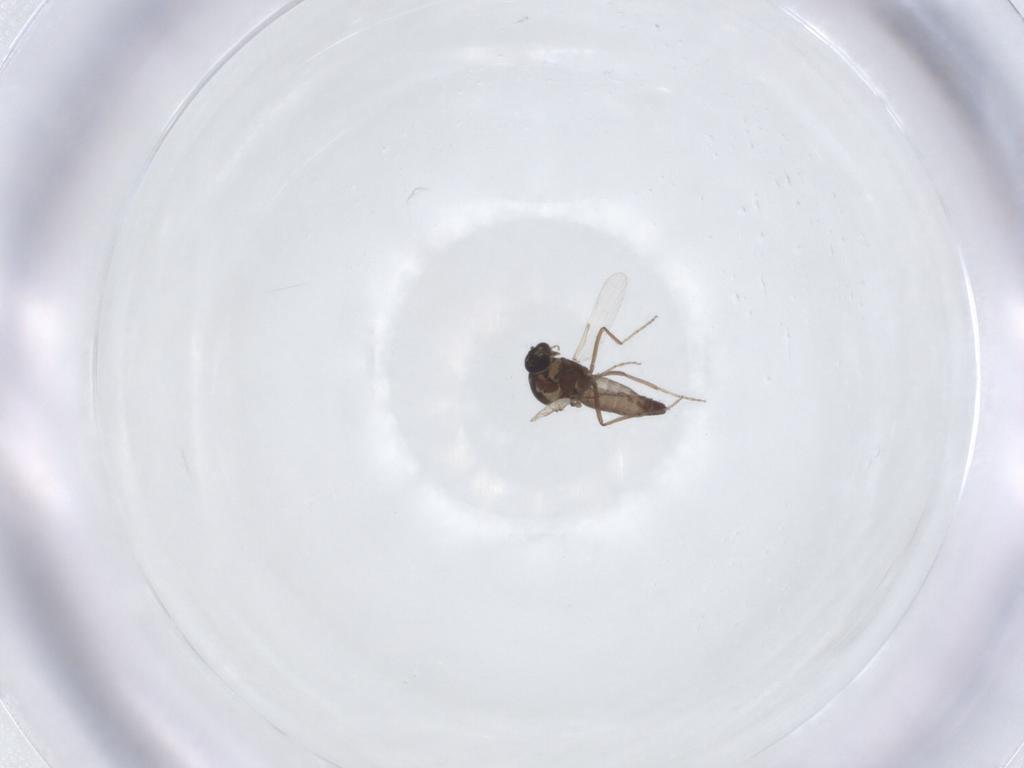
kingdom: Animalia
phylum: Arthropoda
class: Insecta
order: Diptera
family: Ceratopogonidae
